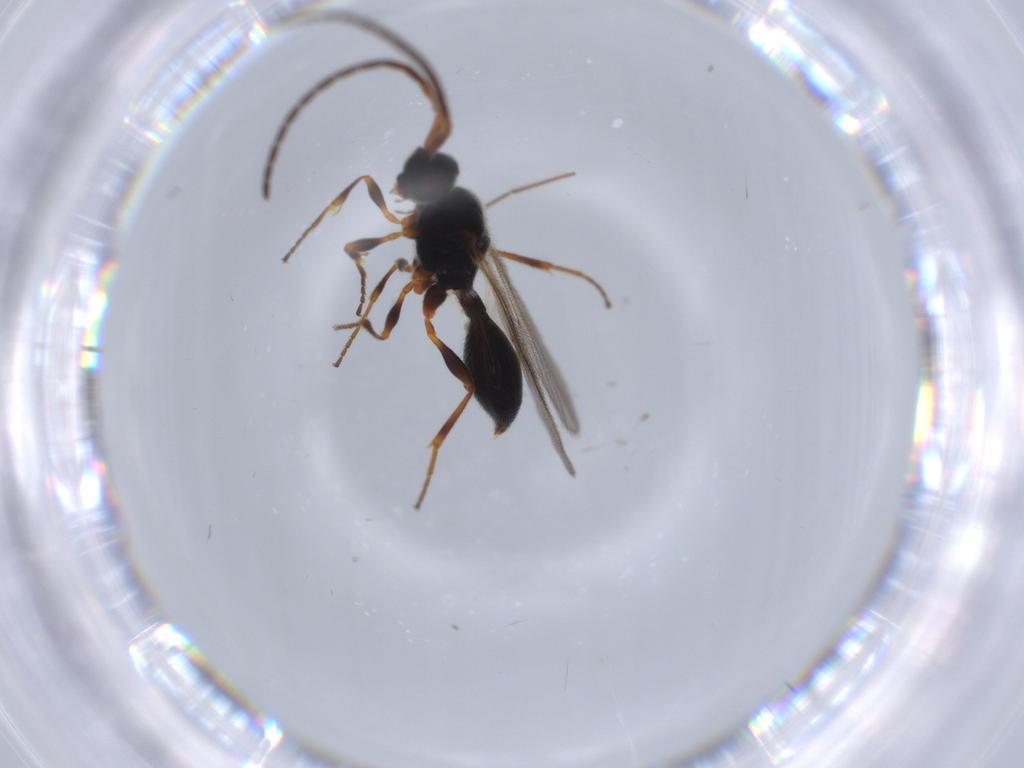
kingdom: Animalia
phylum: Arthropoda
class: Insecta
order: Hymenoptera
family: Diapriidae
